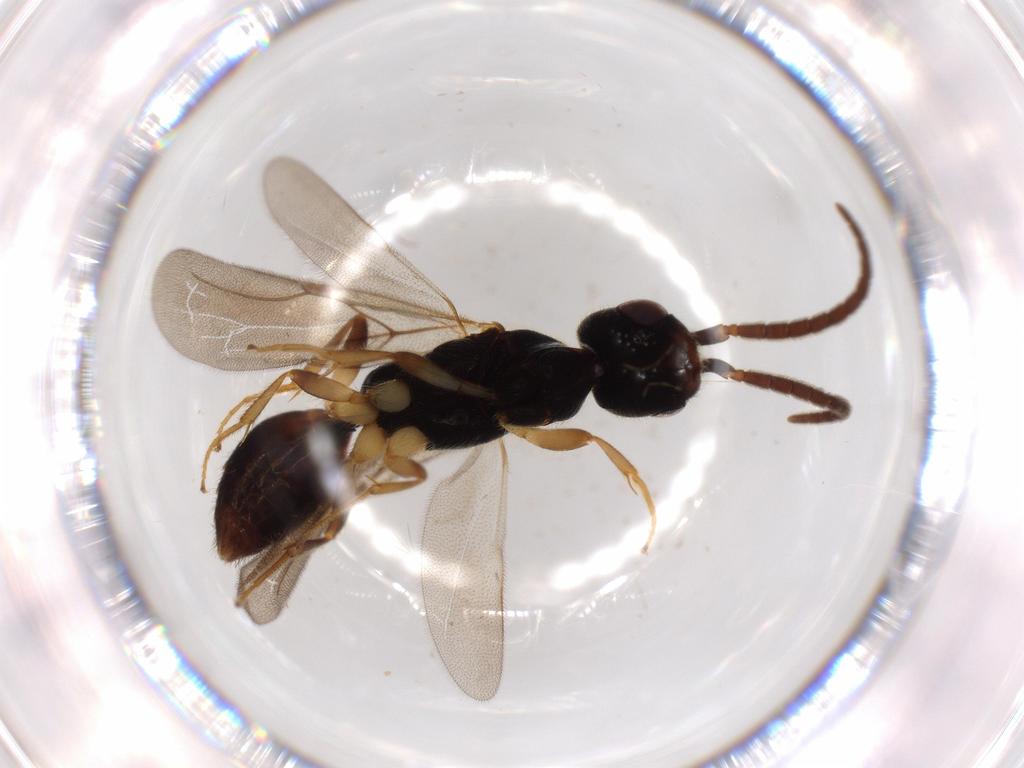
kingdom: Animalia
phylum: Arthropoda
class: Insecta
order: Hymenoptera
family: Bethylidae
